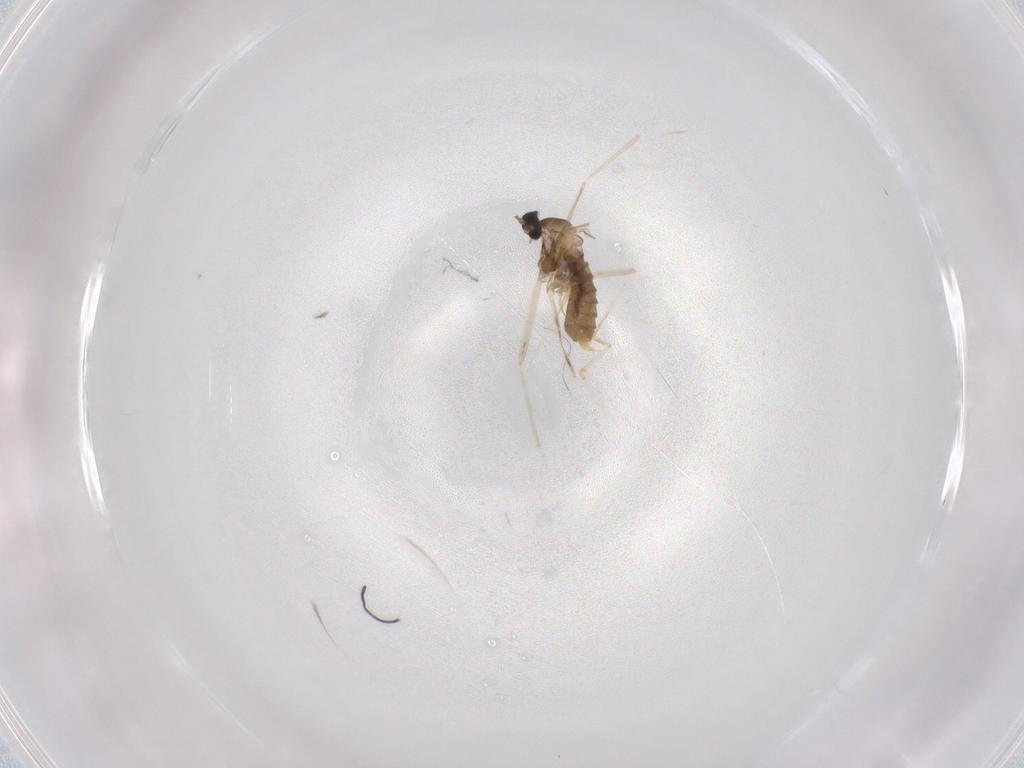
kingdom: Animalia
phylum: Arthropoda
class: Insecta
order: Diptera
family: Cecidomyiidae
